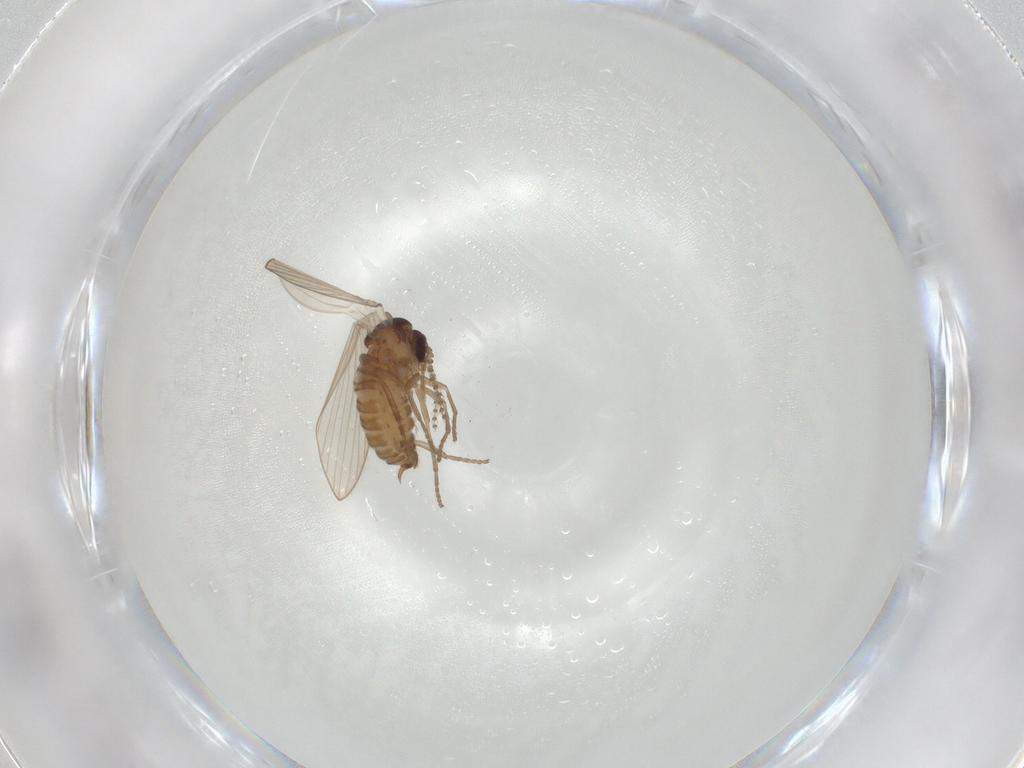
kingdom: Animalia
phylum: Arthropoda
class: Insecta
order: Diptera
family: Psychodidae
